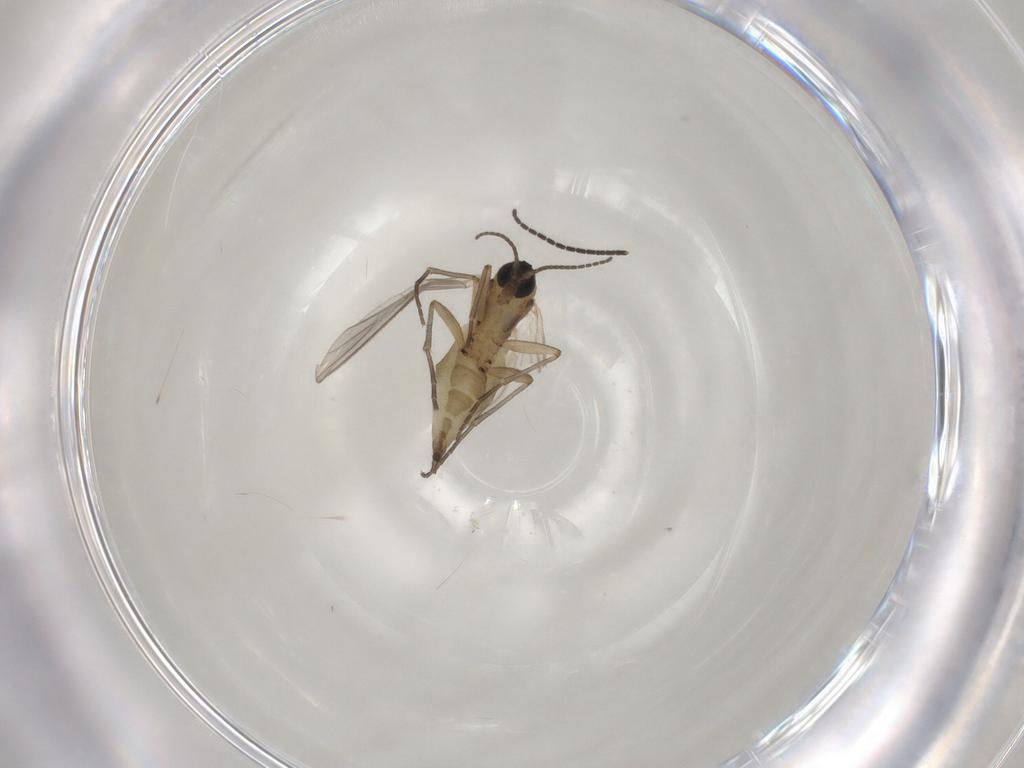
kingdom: Animalia
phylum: Arthropoda
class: Insecta
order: Diptera
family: Sciaridae
